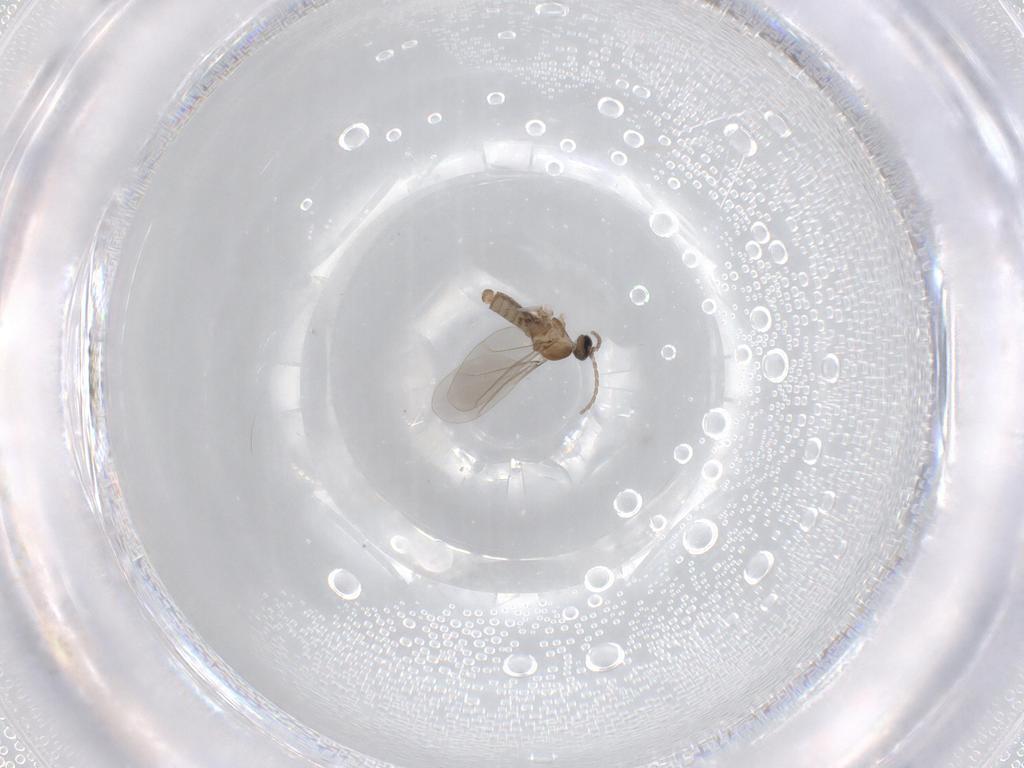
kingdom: Animalia
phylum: Arthropoda
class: Insecta
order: Diptera
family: Cecidomyiidae
